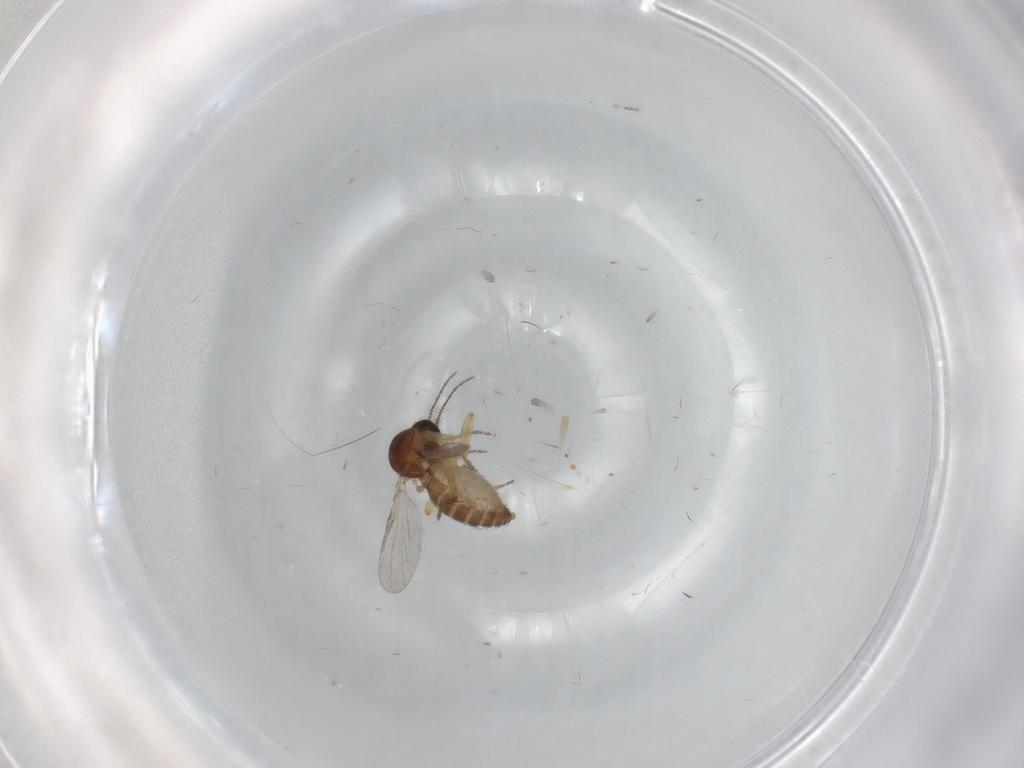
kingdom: Animalia
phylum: Arthropoda
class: Insecta
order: Diptera
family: Ceratopogonidae
